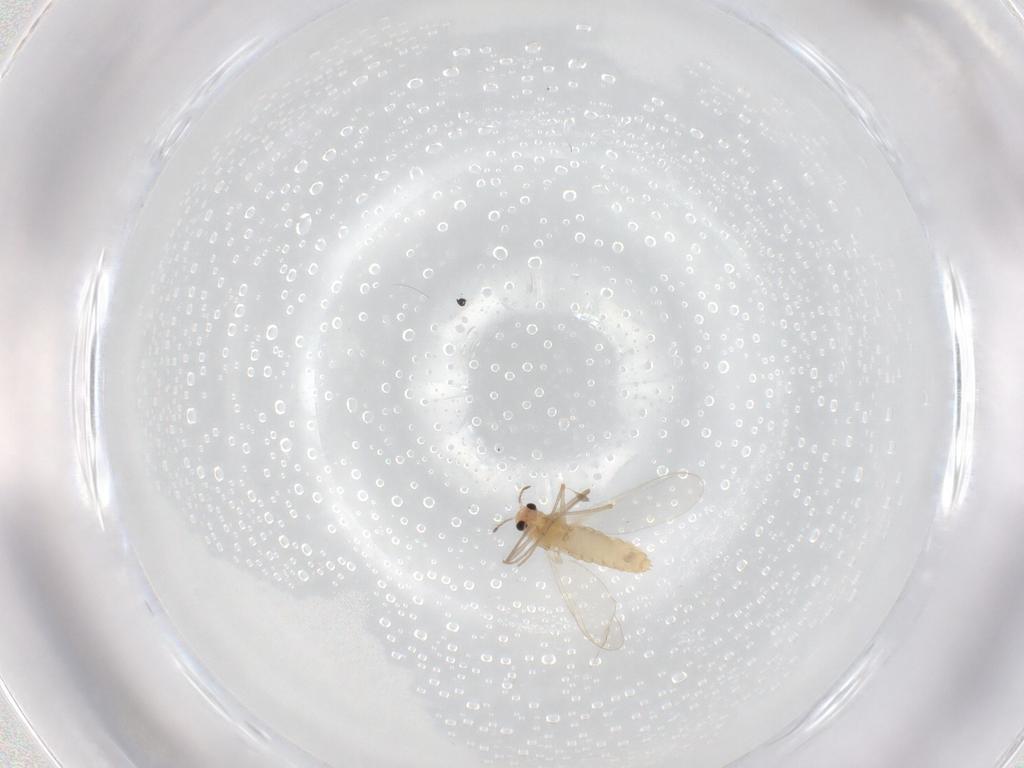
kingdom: Animalia
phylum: Arthropoda
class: Insecta
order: Diptera
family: Chironomidae
